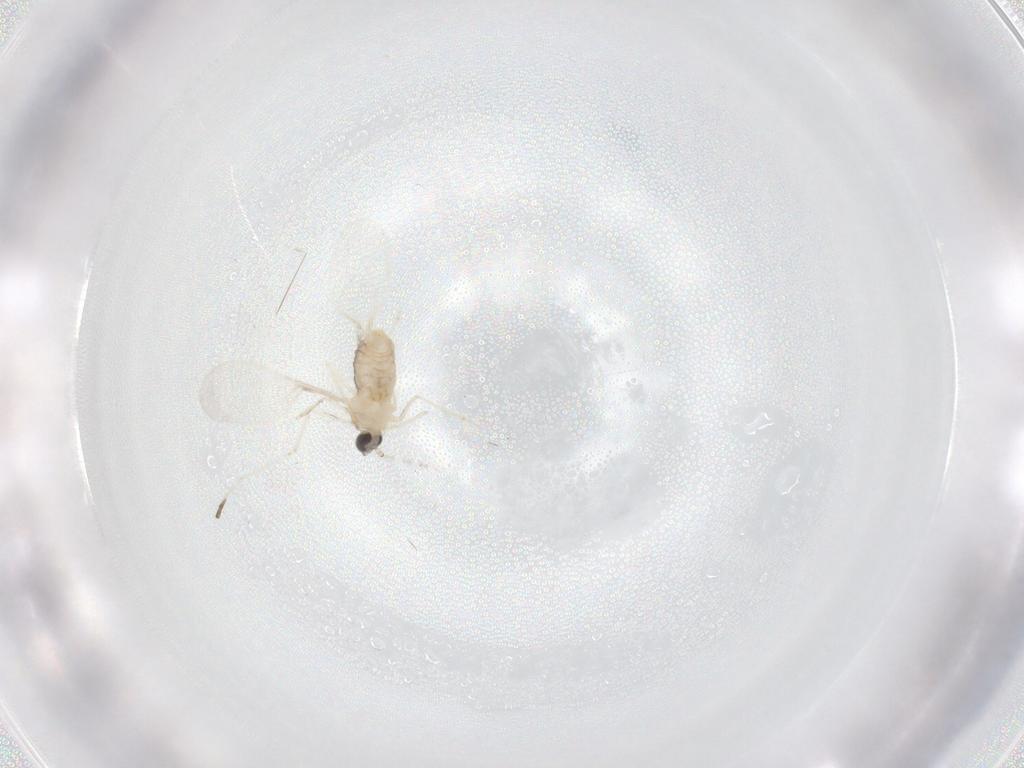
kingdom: Animalia
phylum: Arthropoda
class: Insecta
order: Diptera
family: Cecidomyiidae
